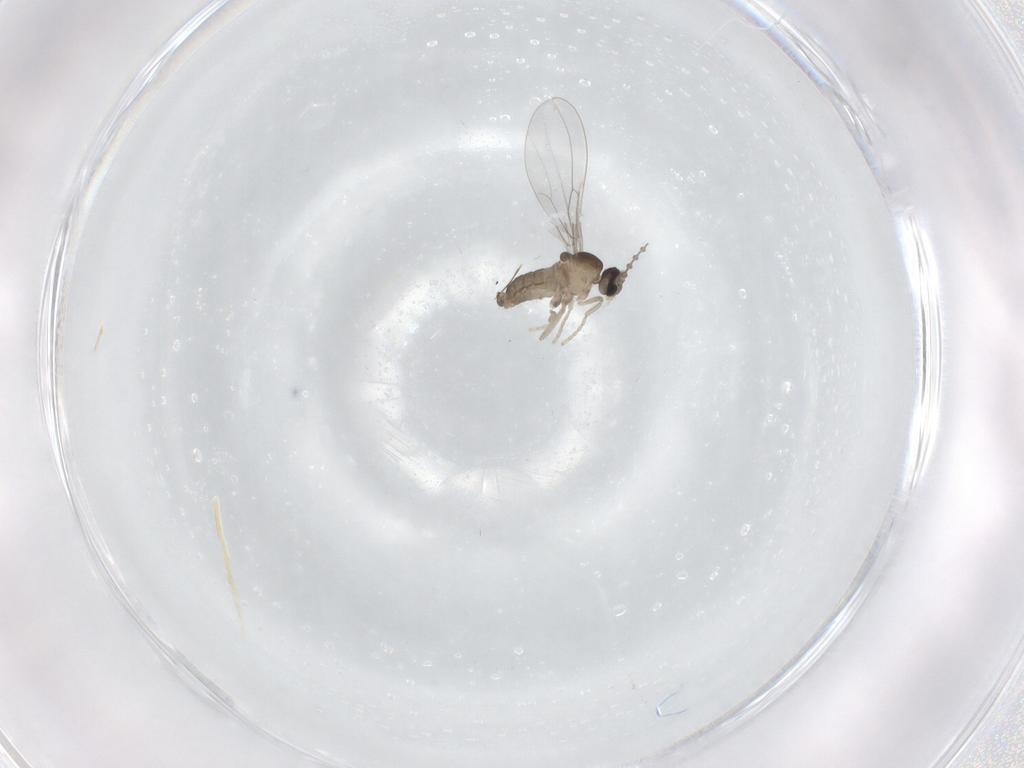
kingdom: Animalia
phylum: Arthropoda
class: Insecta
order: Diptera
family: Cecidomyiidae
